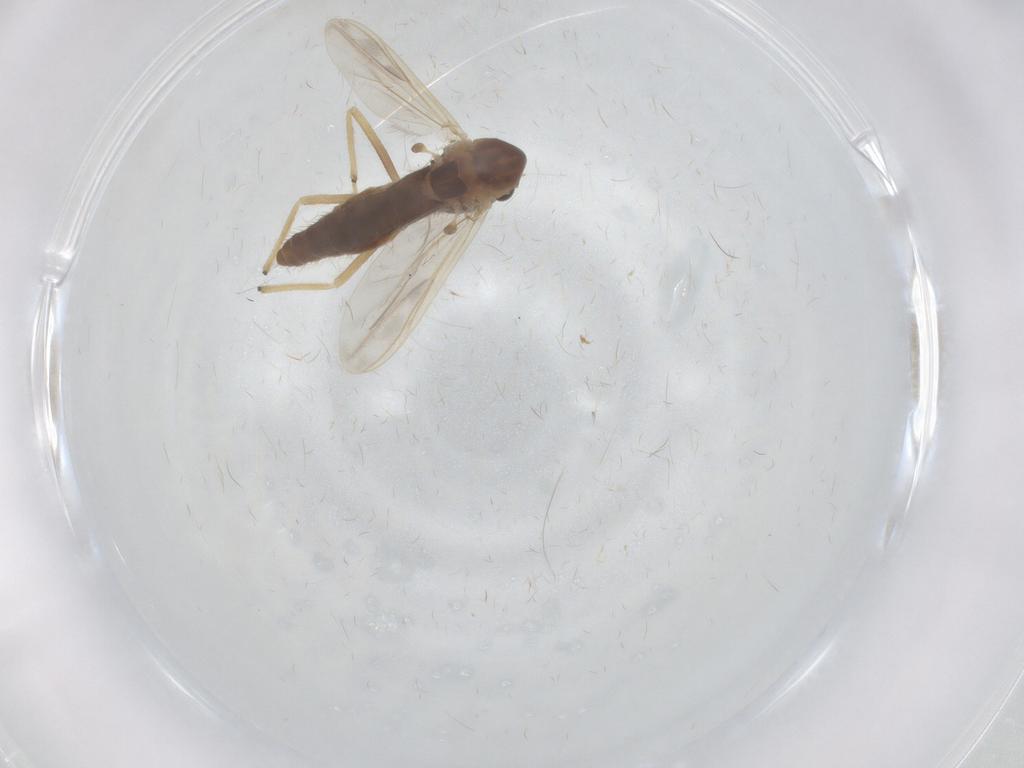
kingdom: Animalia
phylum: Arthropoda
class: Insecta
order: Diptera
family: Chironomidae
